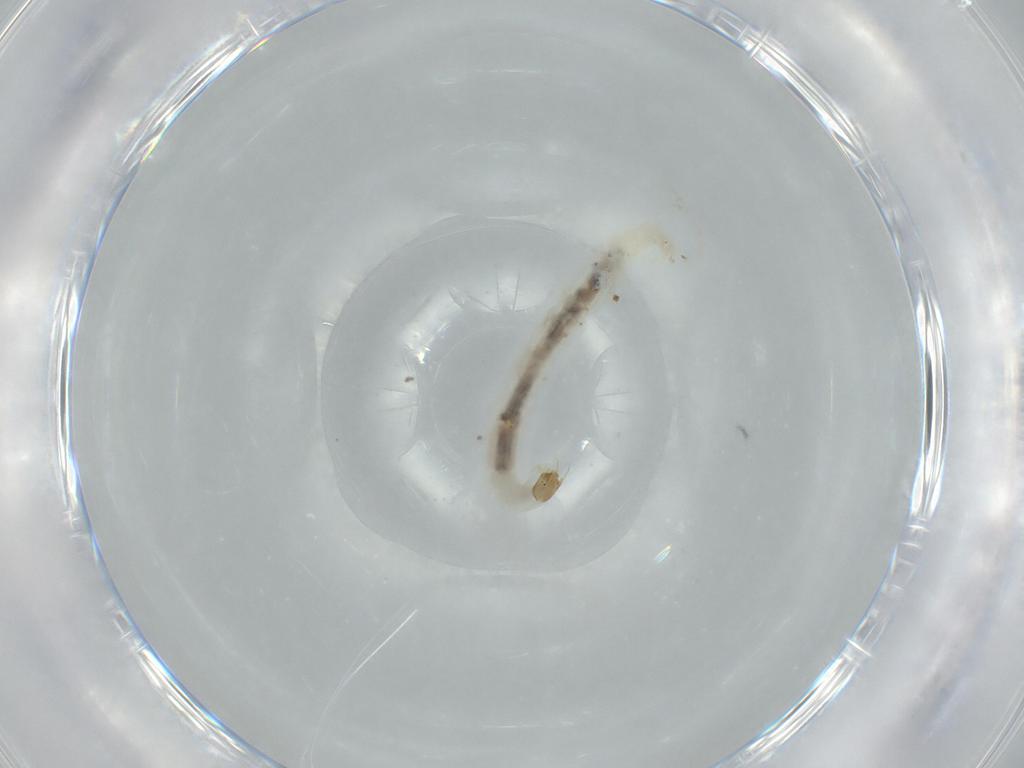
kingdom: Animalia
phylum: Arthropoda
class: Insecta
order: Diptera
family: Chironomidae
